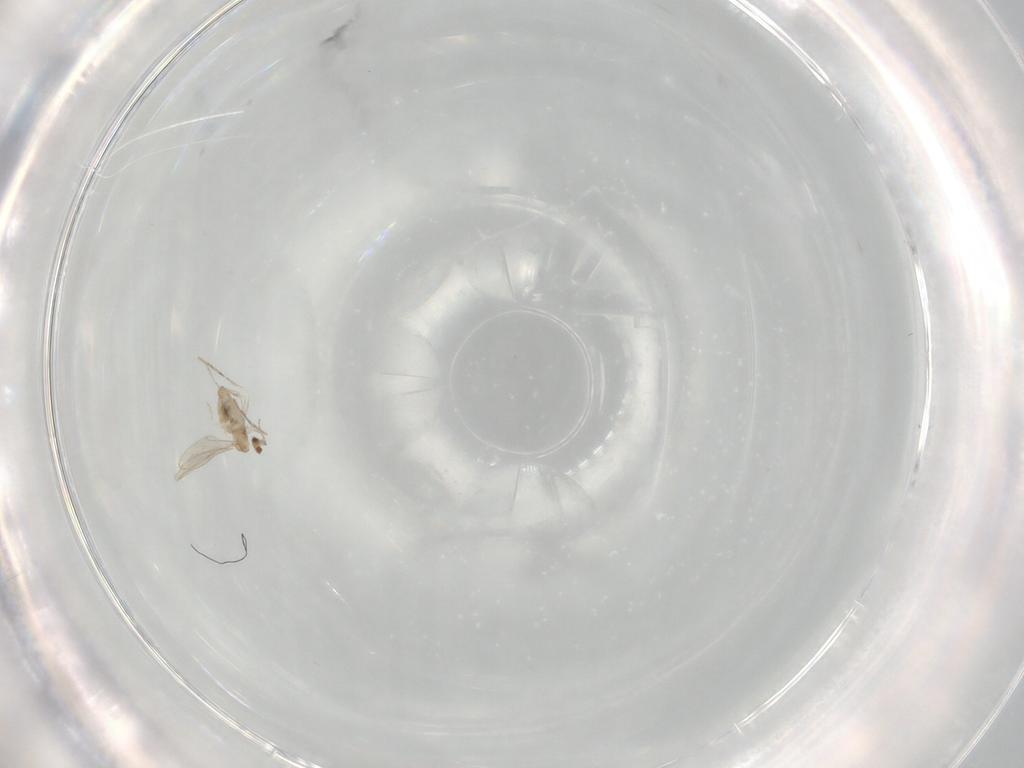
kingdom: Animalia
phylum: Arthropoda
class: Insecta
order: Diptera
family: Cecidomyiidae
